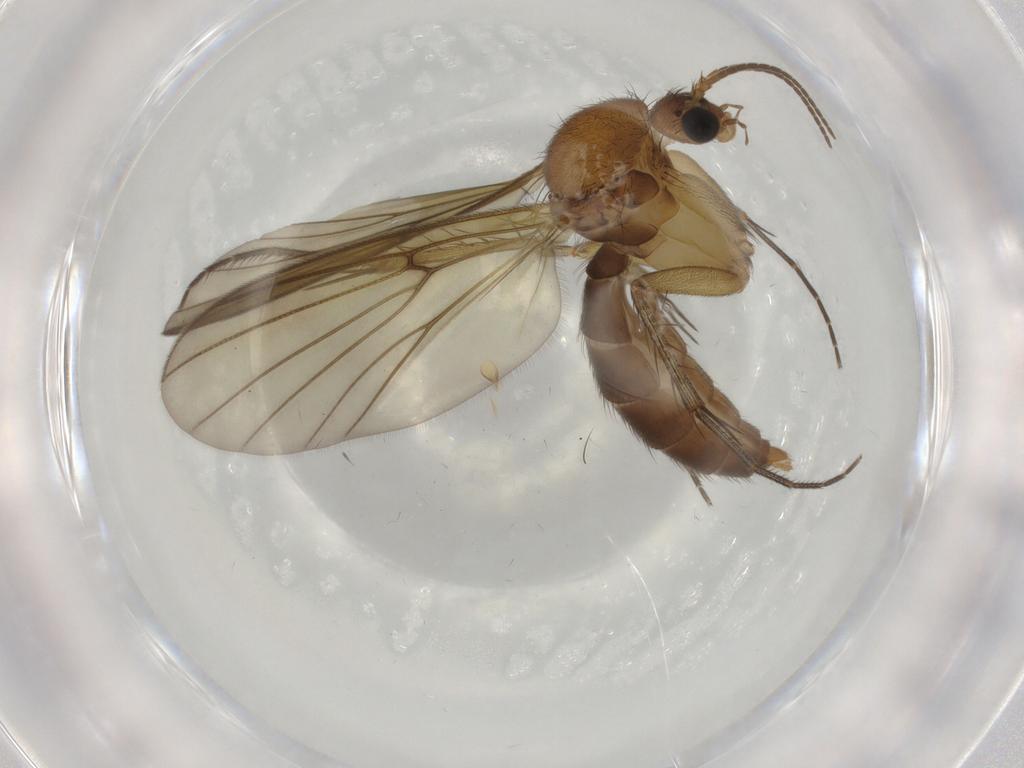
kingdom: Animalia
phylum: Arthropoda
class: Insecta
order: Diptera
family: Mycetophilidae
